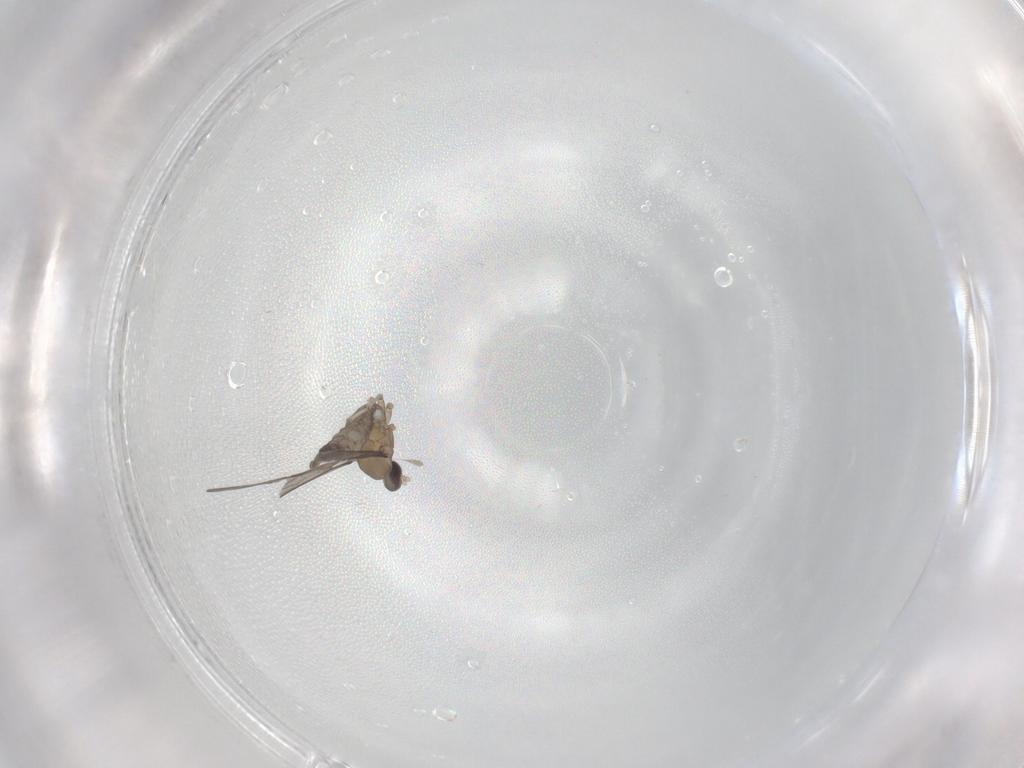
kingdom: Animalia
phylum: Arthropoda
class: Insecta
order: Diptera
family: Cecidomyiidae
